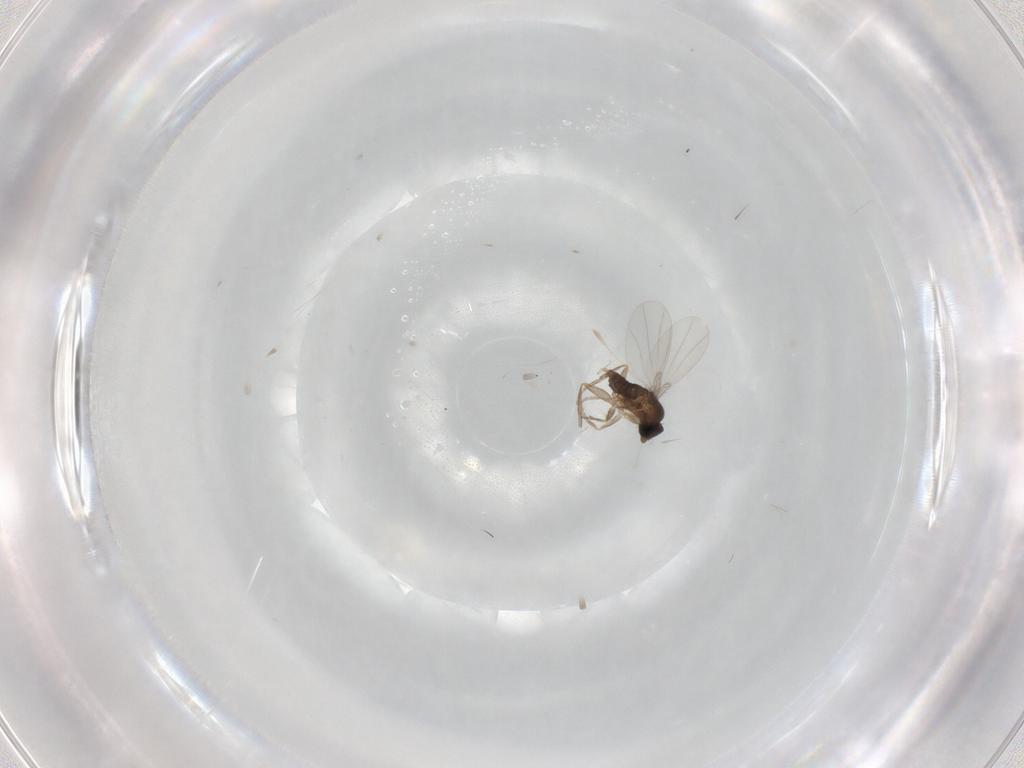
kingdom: Animalia
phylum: Arthropoda
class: Insecta
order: Diptera
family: Phoridae
